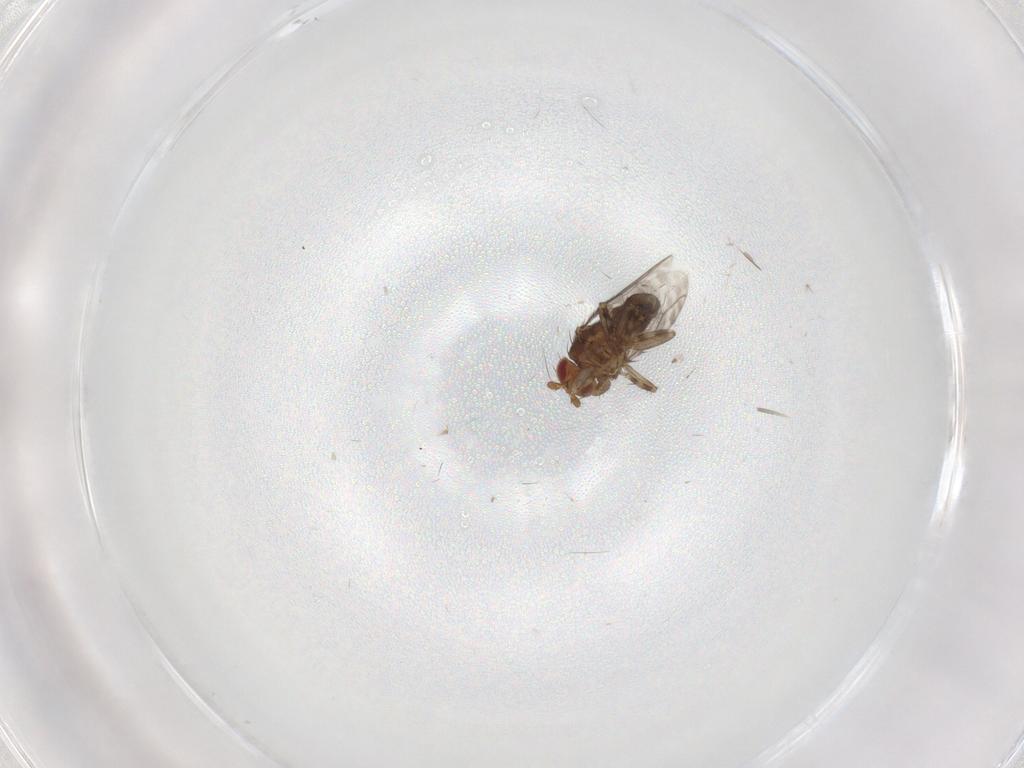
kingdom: Animalia
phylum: Arthropoda
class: Insecta
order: Diptera
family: Sphaeroceridae
